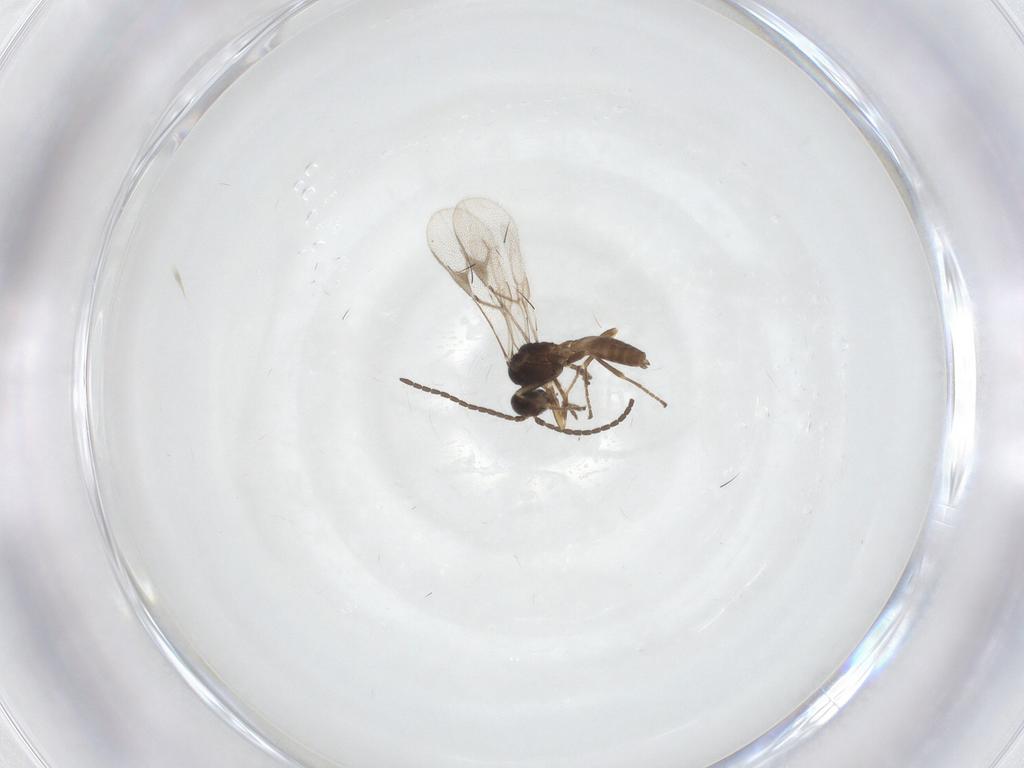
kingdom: Animalia
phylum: Arthropoda
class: Insecta
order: Hymenoptera
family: Braconidae
